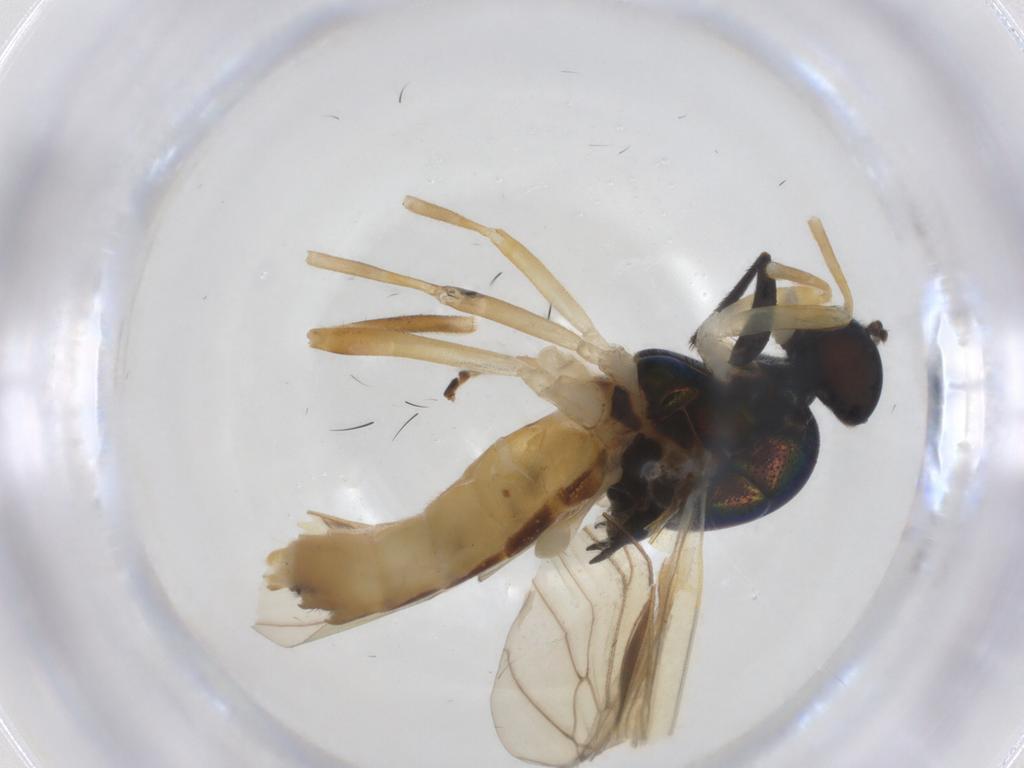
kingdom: Animalia
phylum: Arthropoda
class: Insecta
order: Diptera
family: Stratiomyidae
